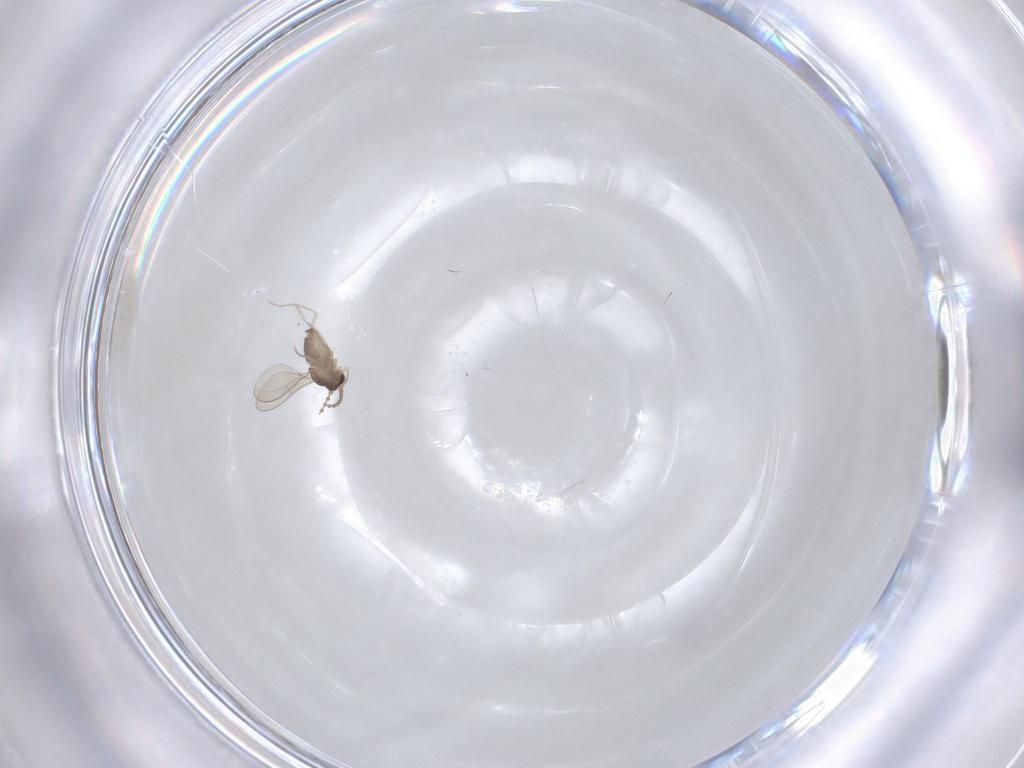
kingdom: Animalia
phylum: Arthropoda
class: Insecta
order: Diptera
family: Cecidomyiidae
